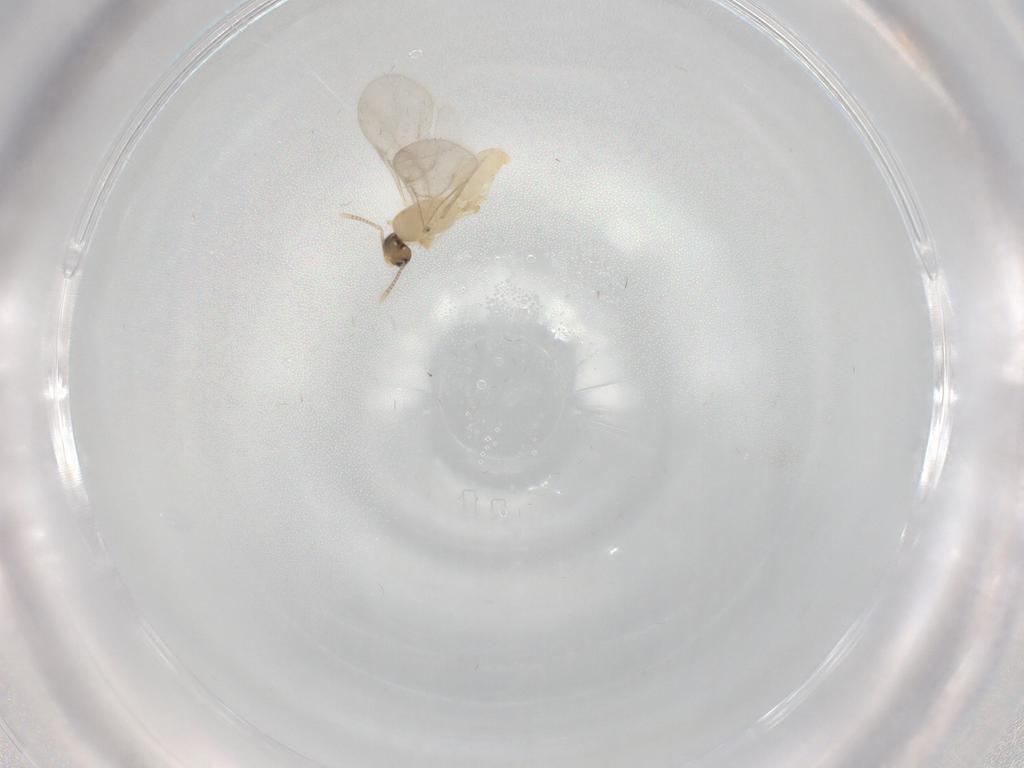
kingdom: Animalia
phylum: Arthropoda
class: Insecta
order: Hymenoptera
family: Formicidae
